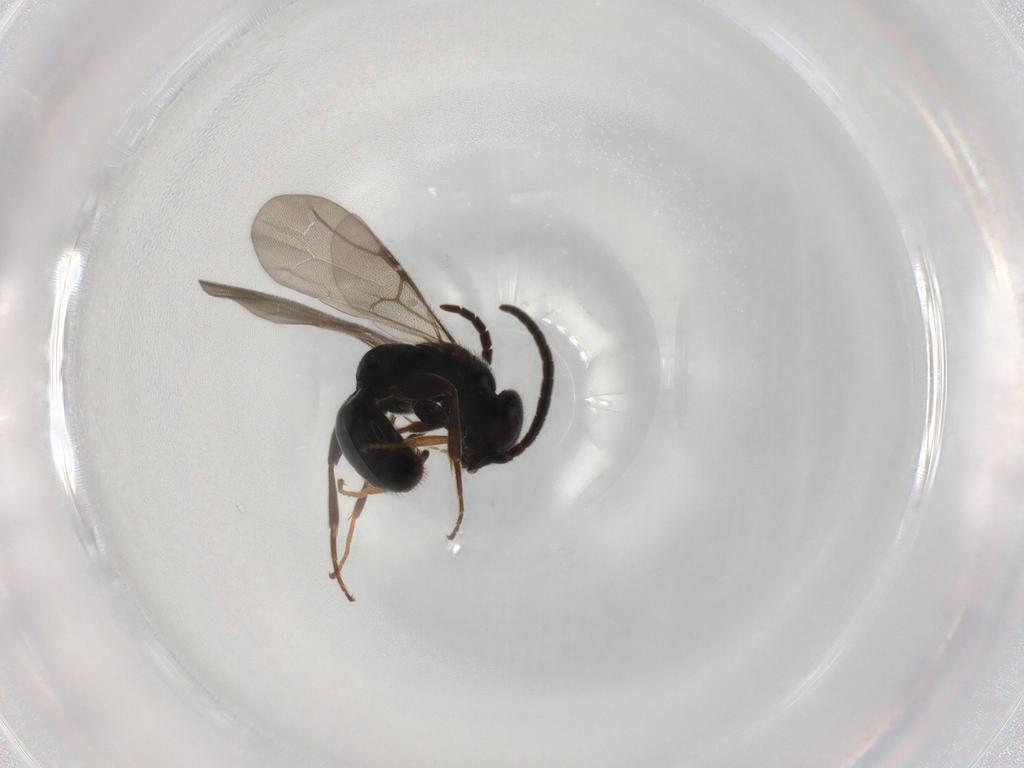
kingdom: Animalia
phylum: Arthropoda
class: Insecta
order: Hymenoptera
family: Bethylidae
